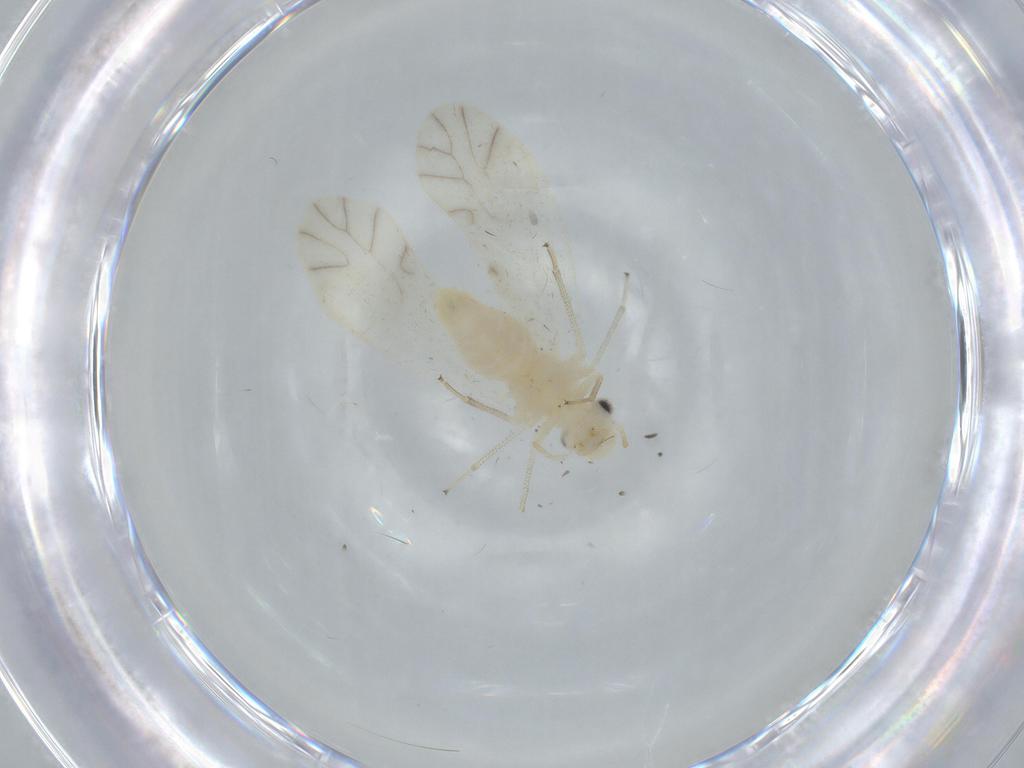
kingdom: Animalia
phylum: Arthropoda
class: Insecta
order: Psocodea
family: Caeciliusidae
